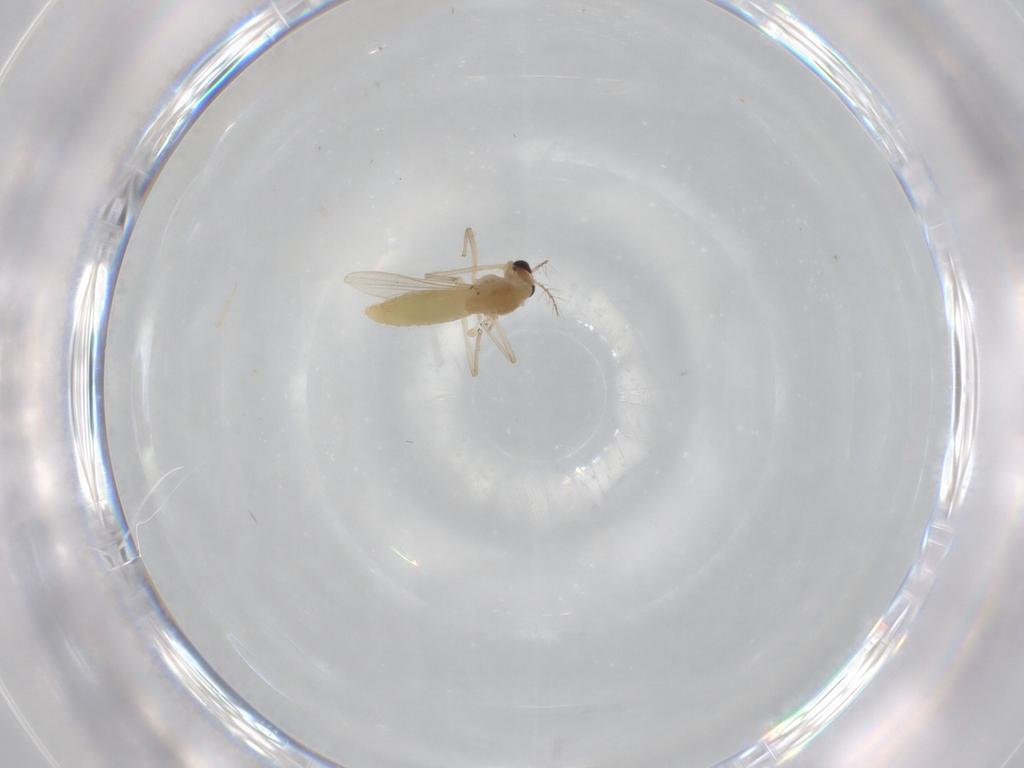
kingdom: Animalia
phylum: Arthropoda
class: Insecta
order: Diptera
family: Chironomidae
